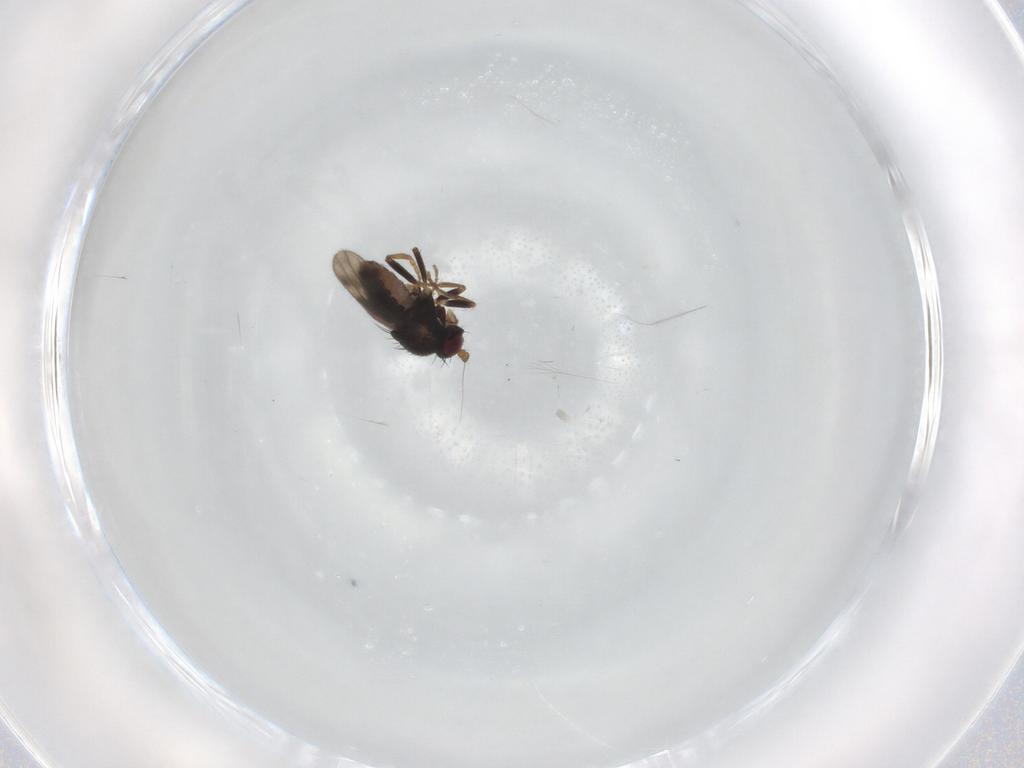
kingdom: Animalia
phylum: Arthropoda
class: Insecta
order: Diptera
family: Sphaeroceridae
